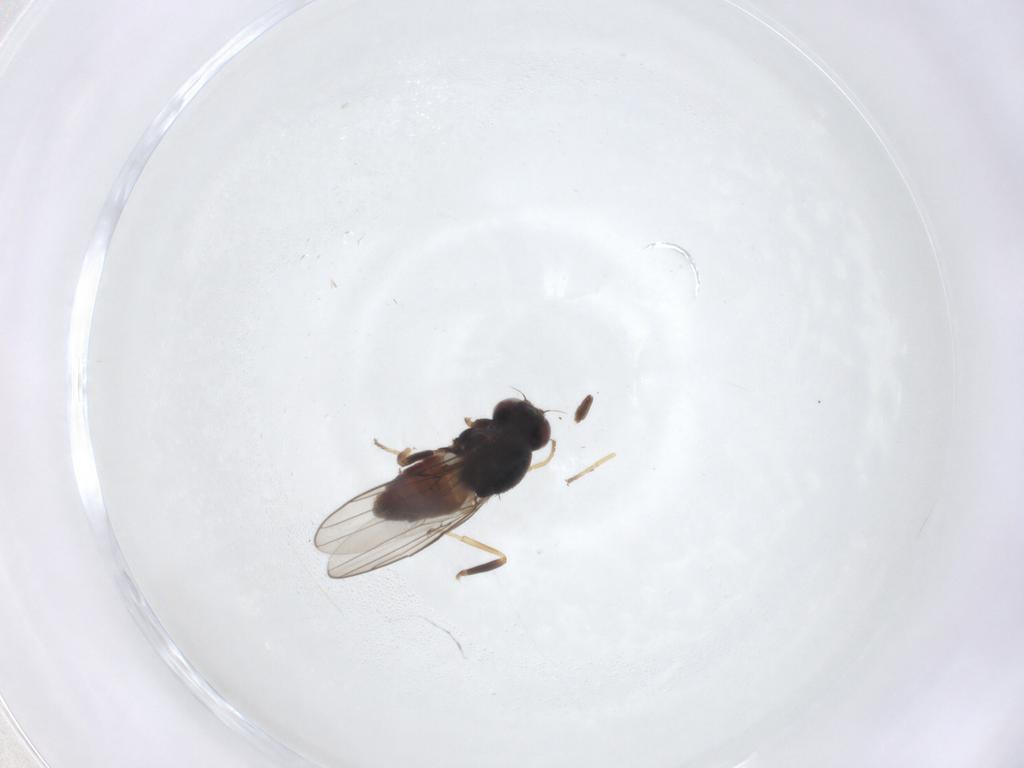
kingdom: Animalia
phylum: Arthropoda
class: Insecta
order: Diptera
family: Chloropidae
